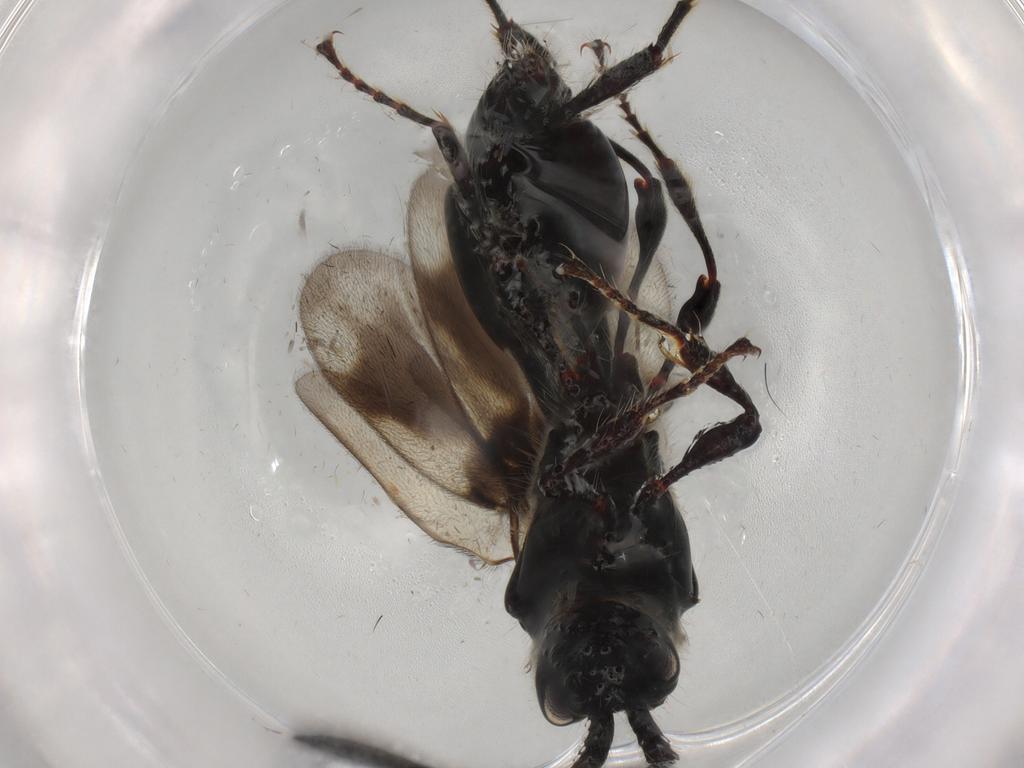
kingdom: Animalia
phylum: Arthropoda
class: Insecta
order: Hymenoptera
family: Diapriidae
